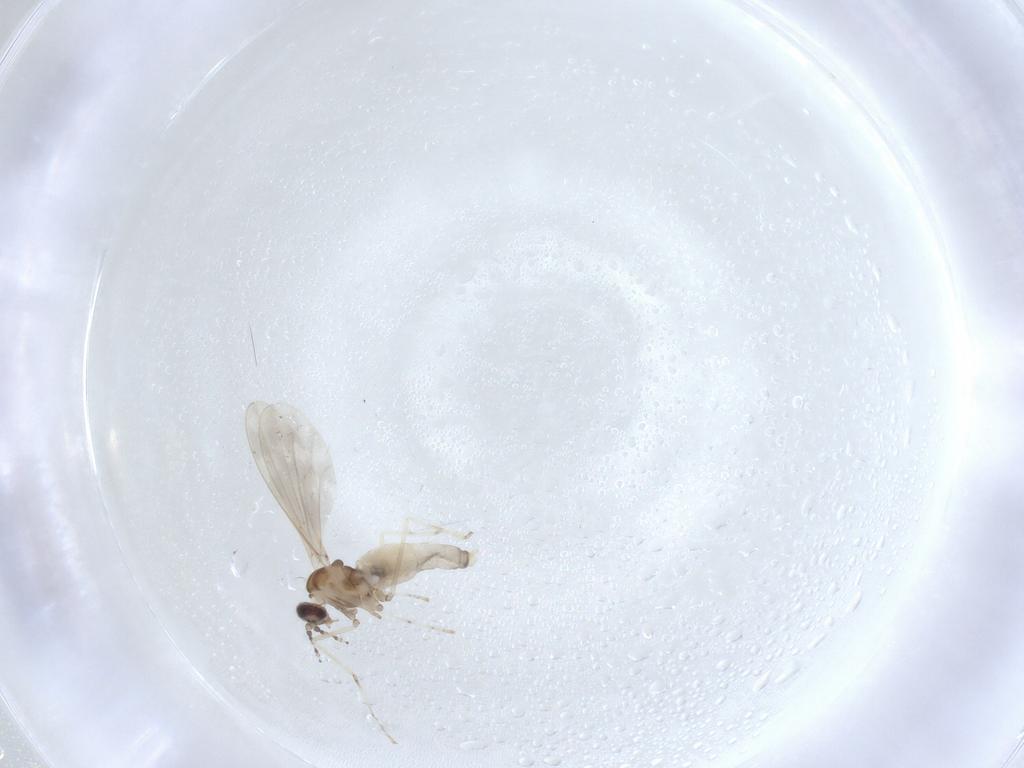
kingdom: Animalia
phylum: Arthropoda
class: Insecta
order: Diptera
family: Cecidomyiidae
